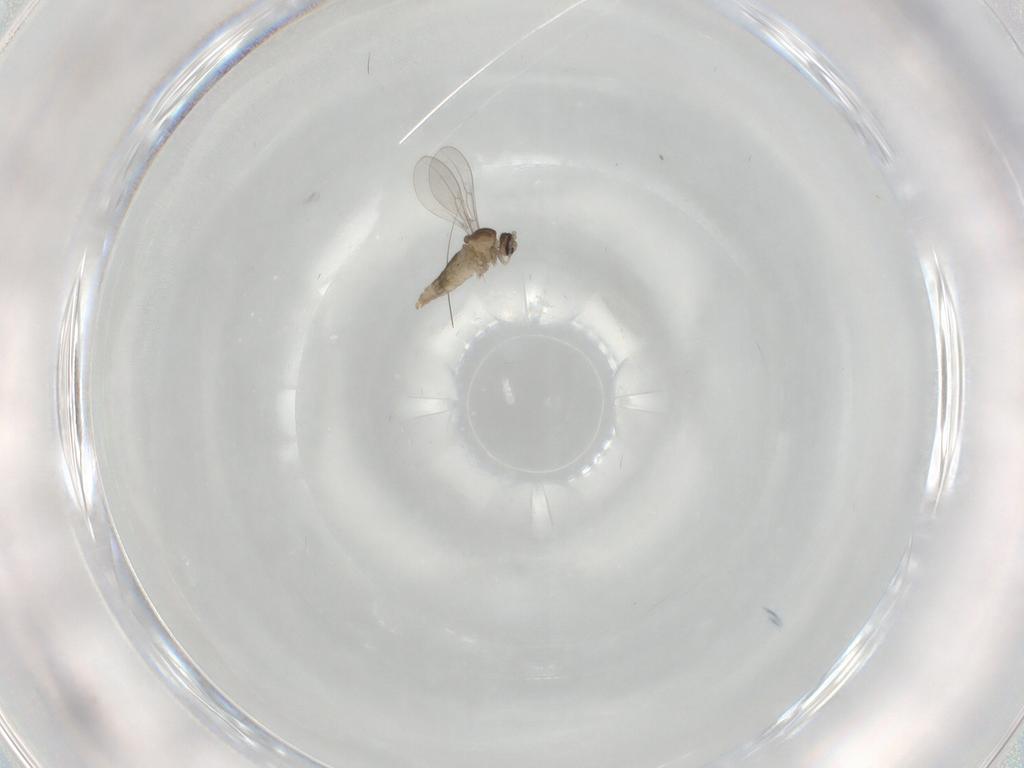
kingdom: Animalia
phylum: Arthropoda
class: Insecta
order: Diptera
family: Cecidomyiidae
